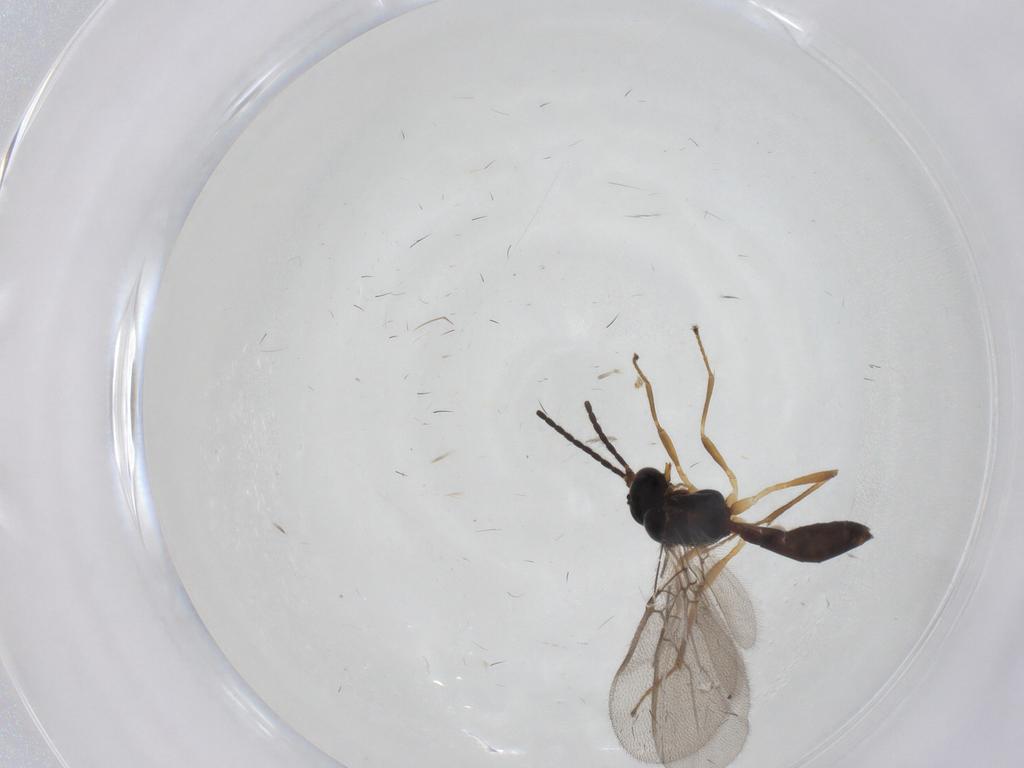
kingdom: Animalia
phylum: Arthropoda
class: Insecta
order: Hymenoptera
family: Braconidae
